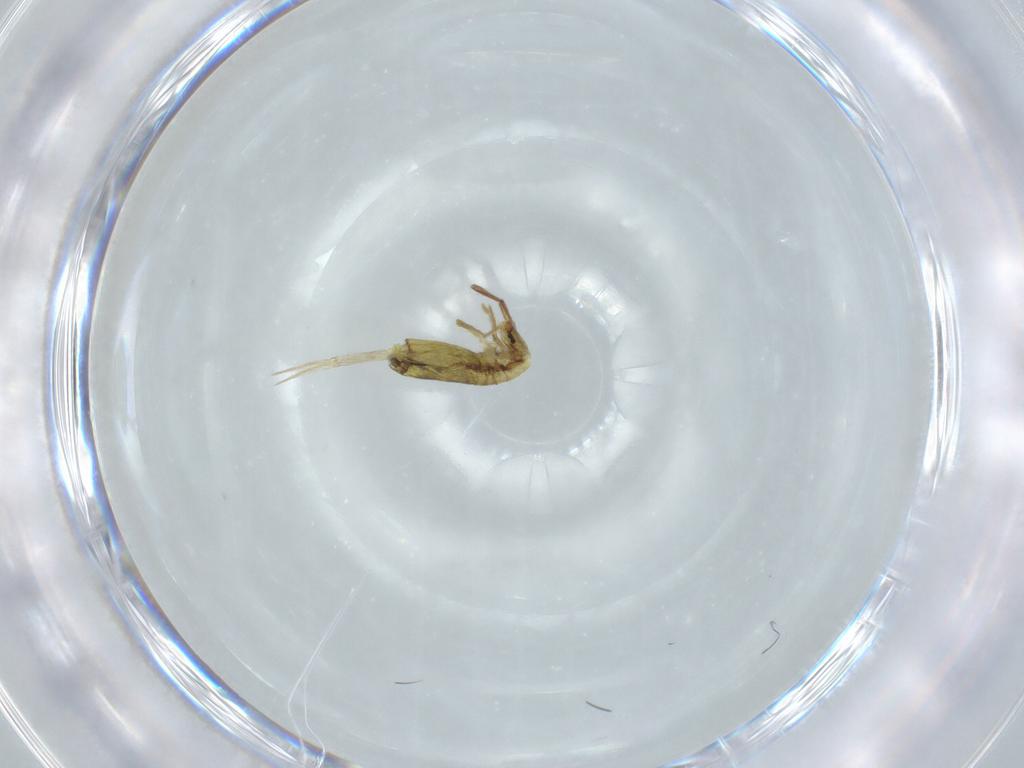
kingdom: Animalia
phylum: Arthropoda
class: Collembola
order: Entomobryomorpha
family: Entomobryidae
